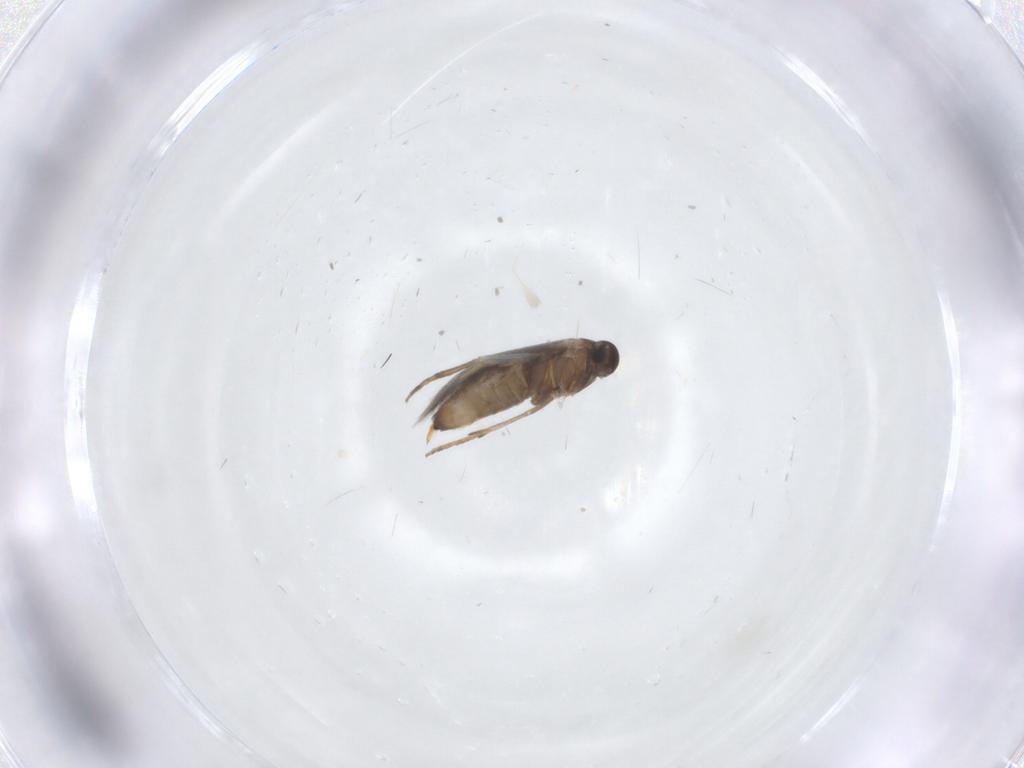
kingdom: Animalia
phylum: Arthropoda
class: Insecta
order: Lepidoptera
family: Heliozelidae
